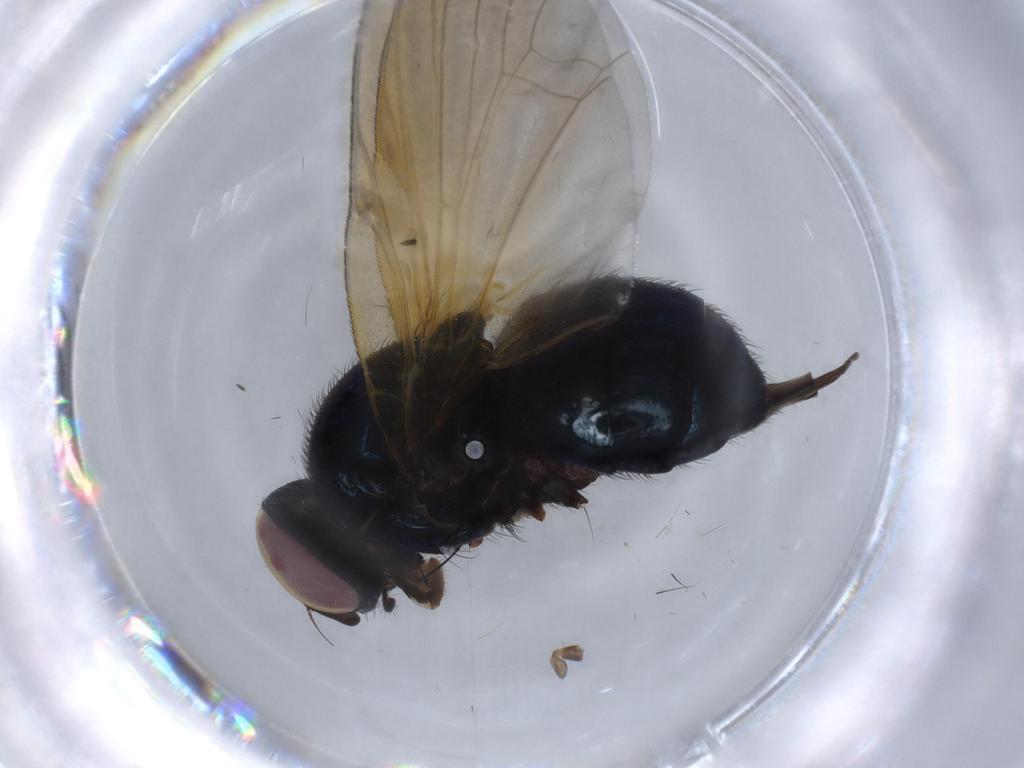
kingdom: Animalia
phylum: Arthropoda
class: Insecta
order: Diptera
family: Lonchaeidae
